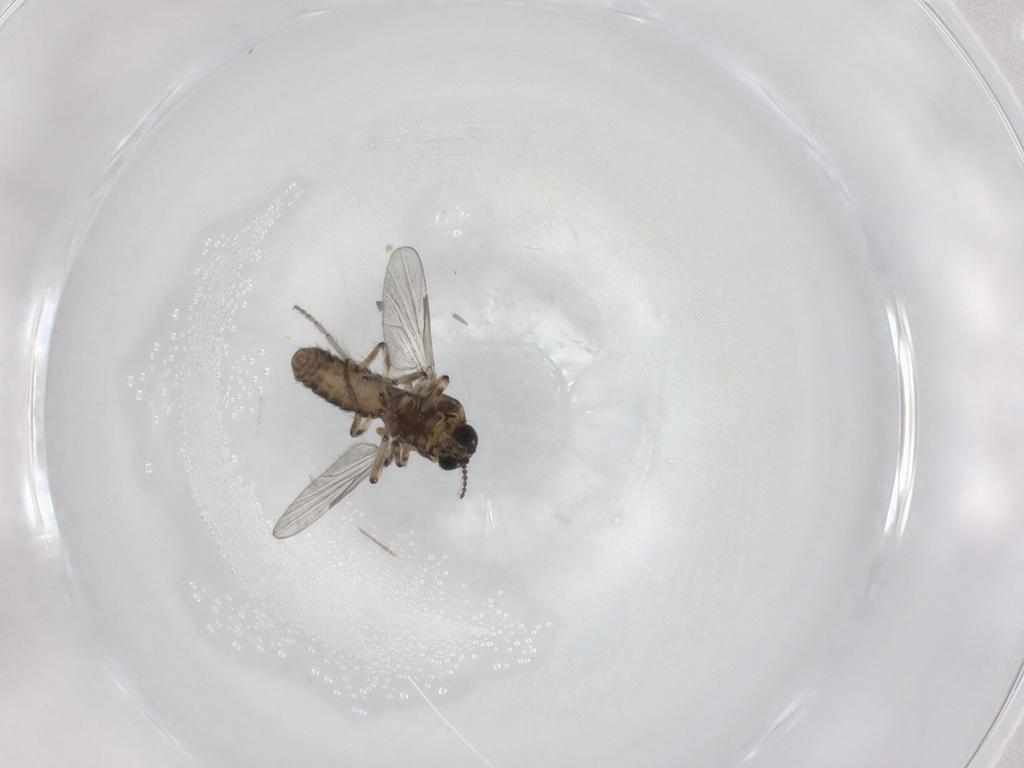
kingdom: Animalia
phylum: Arthropoda
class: Insecta
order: Diptera
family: Ceratopogonidae
